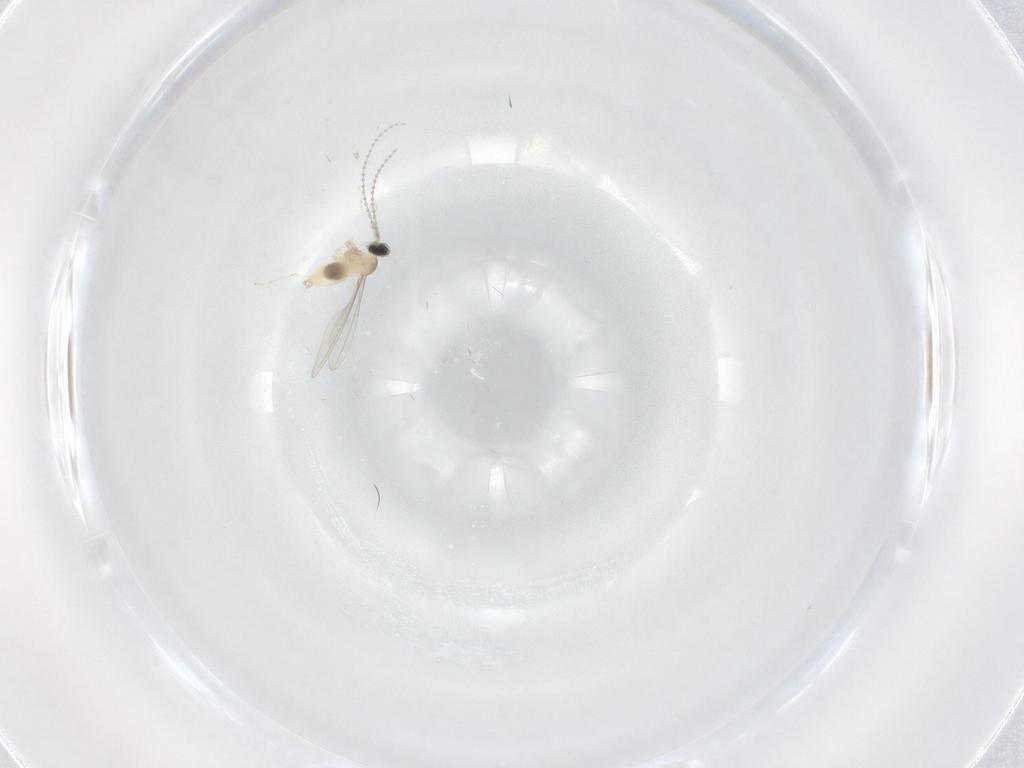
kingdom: Animalia
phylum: Arthropoda
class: Insecta
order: Diptera
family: Cecidomyiidae
